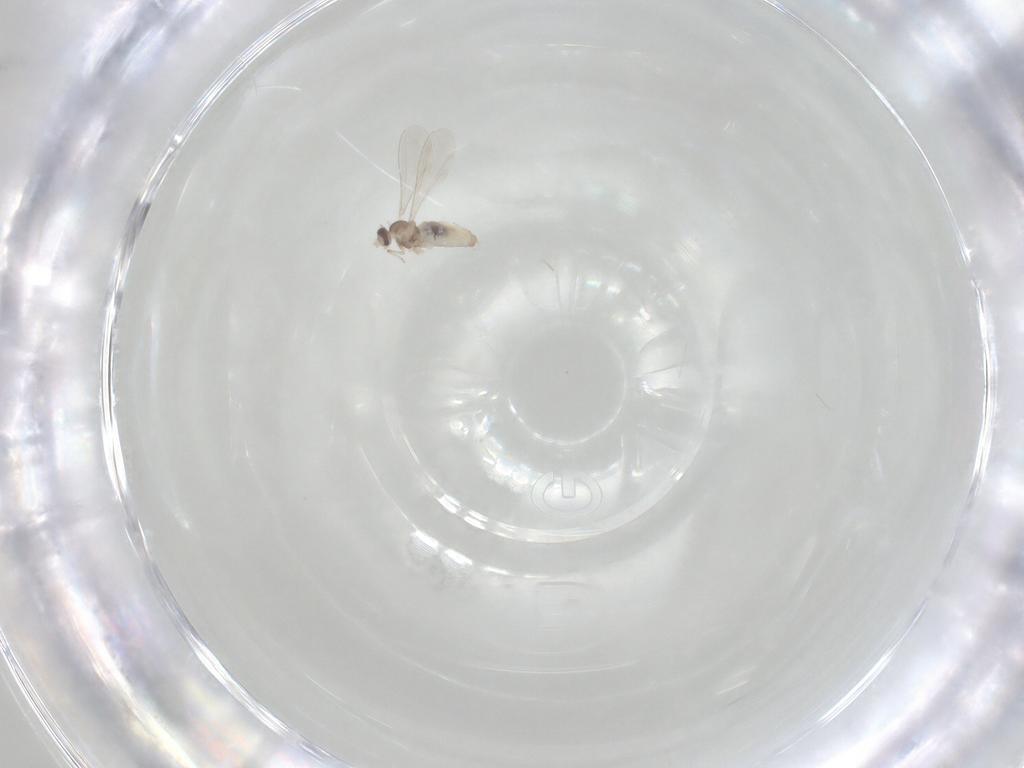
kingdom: Animalia
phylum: Arthropoda
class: Insecta
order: Diptera
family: Cecidomyiidae
